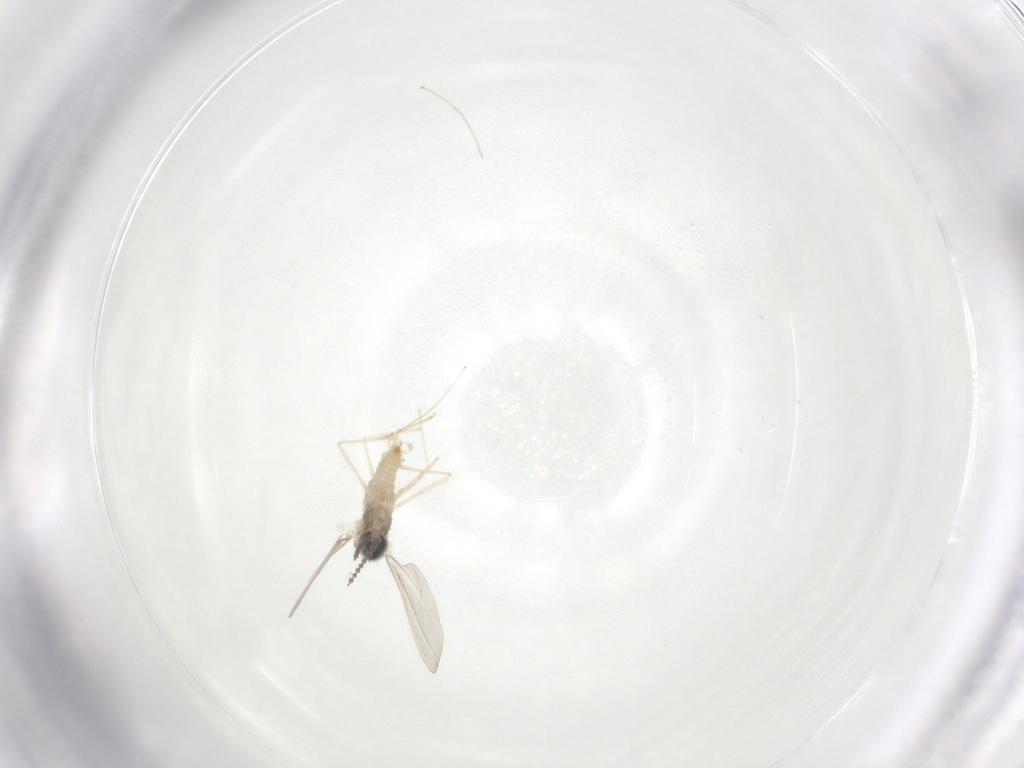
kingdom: Animalia
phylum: Arthropoda
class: Insecta
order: Diptera
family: Cecidomyiidae
